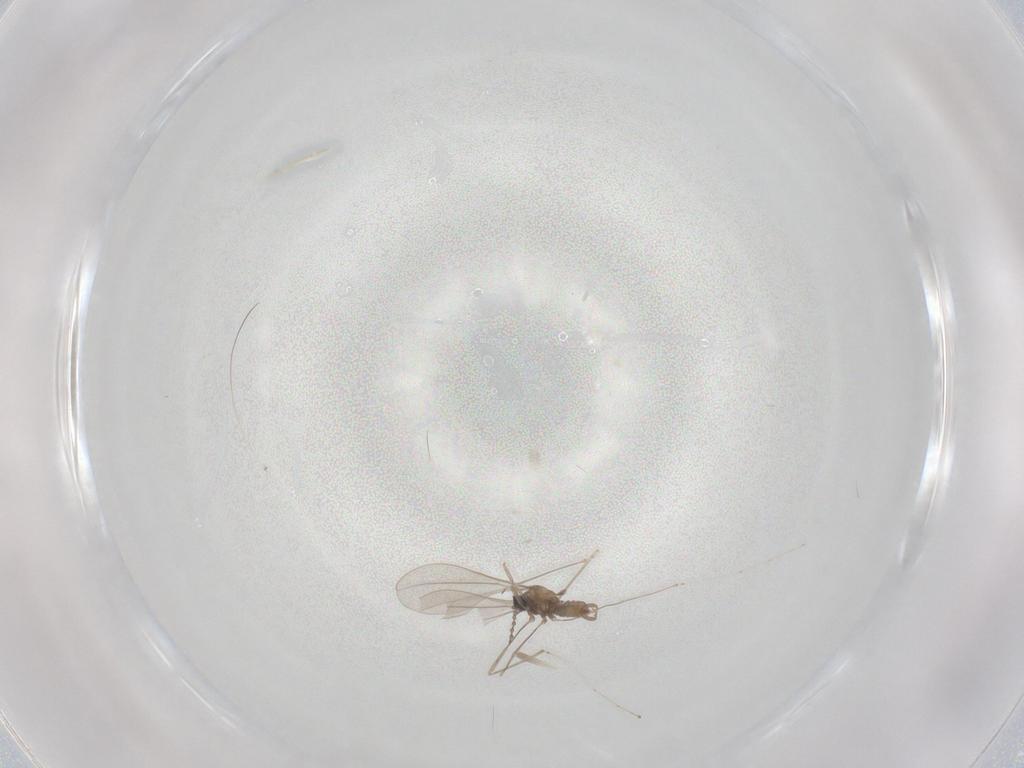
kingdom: Animalia
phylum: Arthropoda
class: Insecta
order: Diptera
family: Cecidomyiidae
